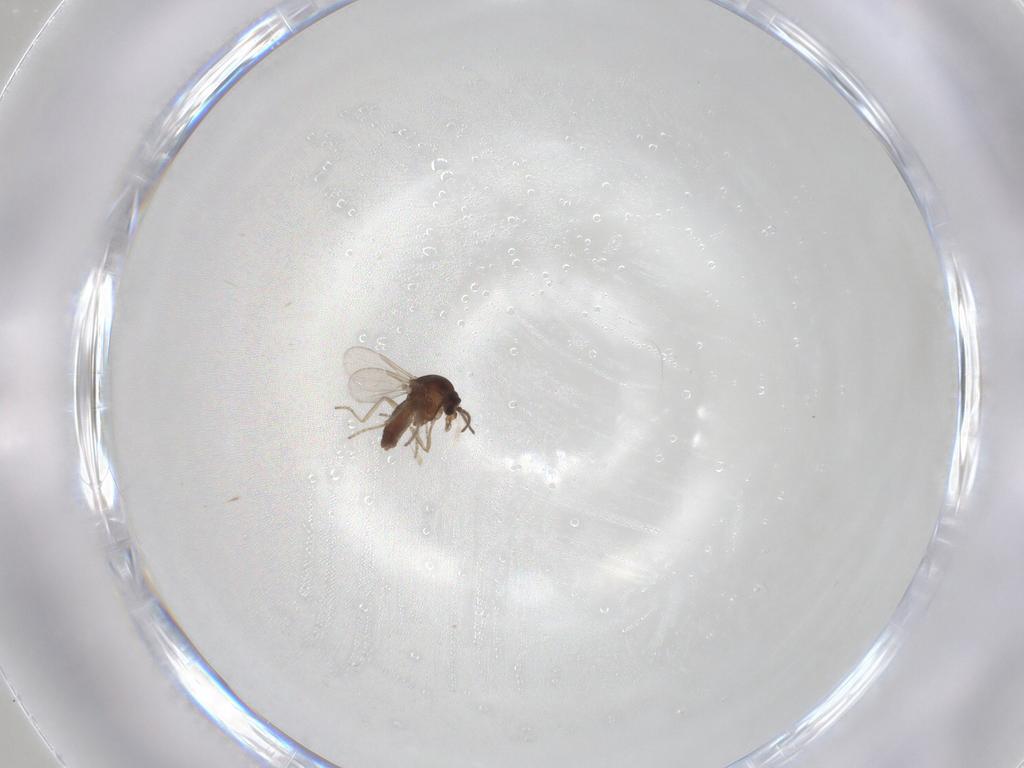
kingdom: Animalia
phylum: Arthropoda
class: Insecta
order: Diptera
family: Ceratopogonidae
